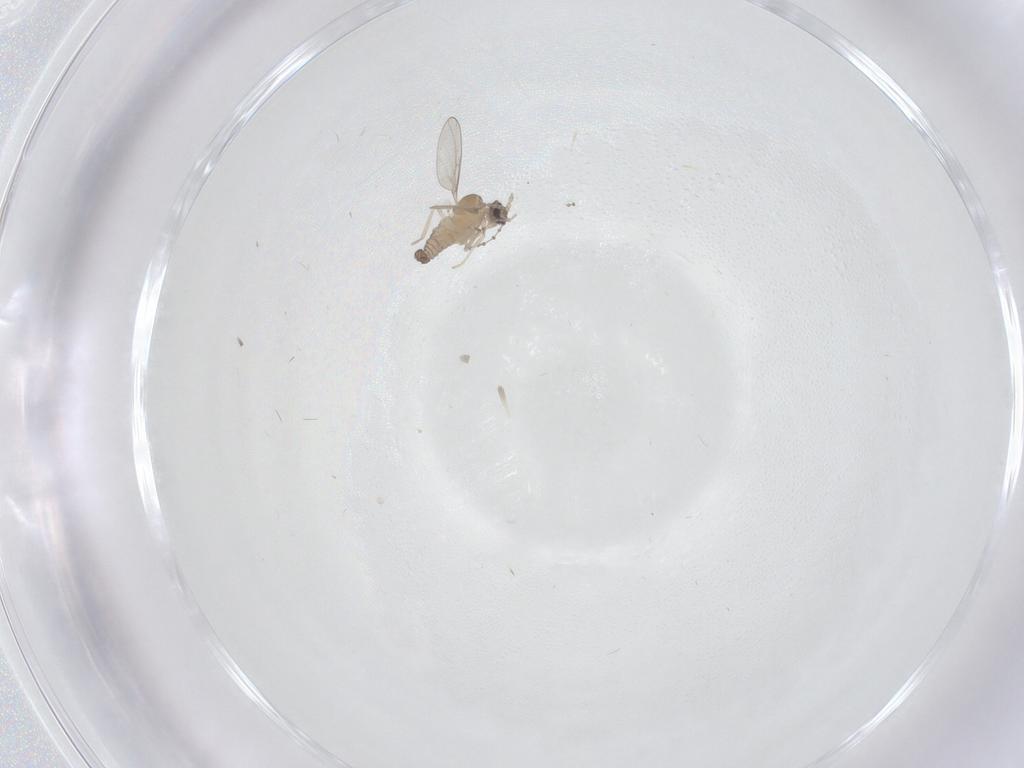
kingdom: Animalia
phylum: Arthropoda
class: Insecta
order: Diptera
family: Cecidomyiidae
